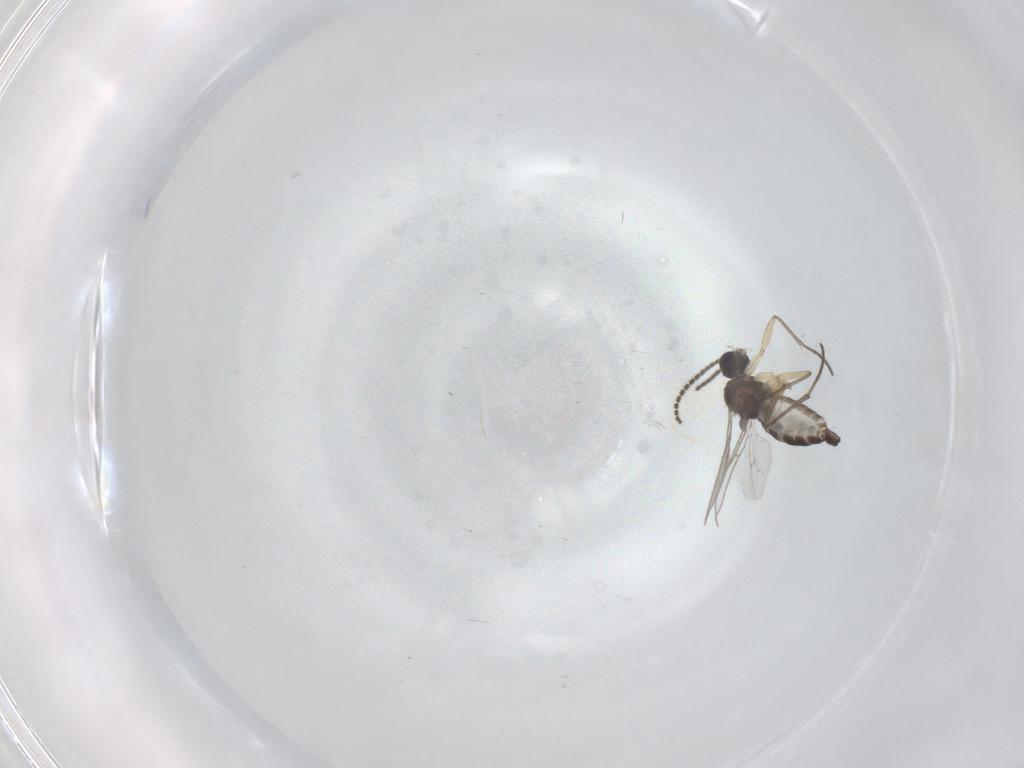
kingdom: Animalia
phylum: Arthropoda
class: Insecta
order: Diptera
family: Sciaridae
